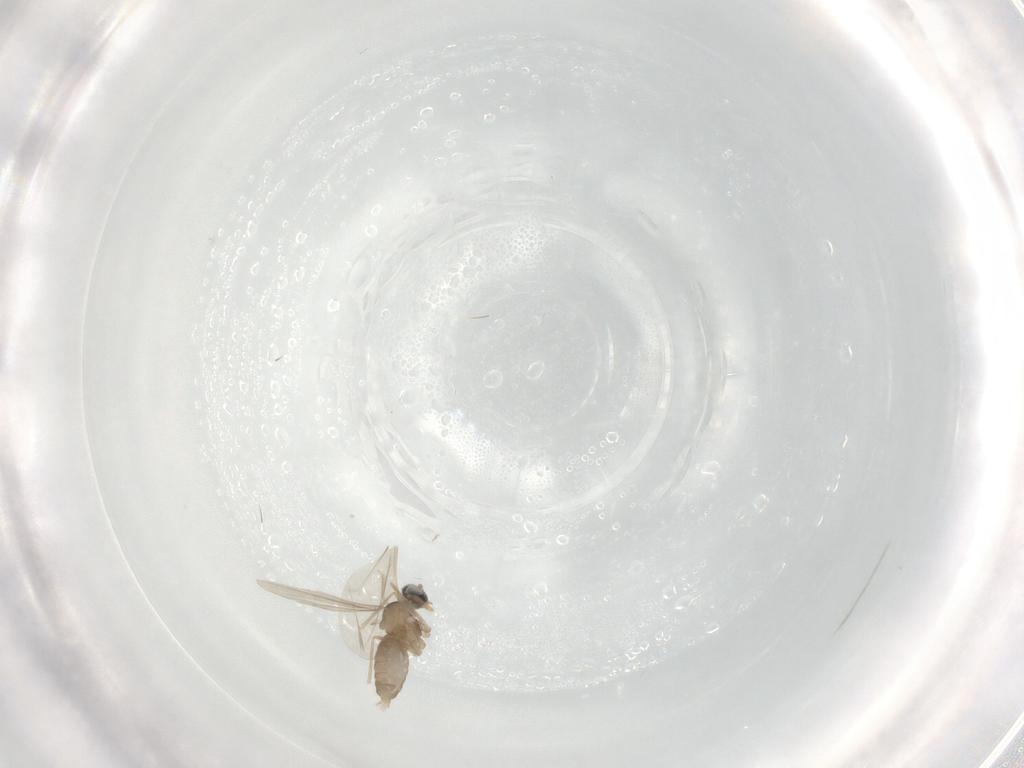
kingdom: Animalia
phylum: Arthropoda
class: Insecta
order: Diptera
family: Cecidomyiidae
